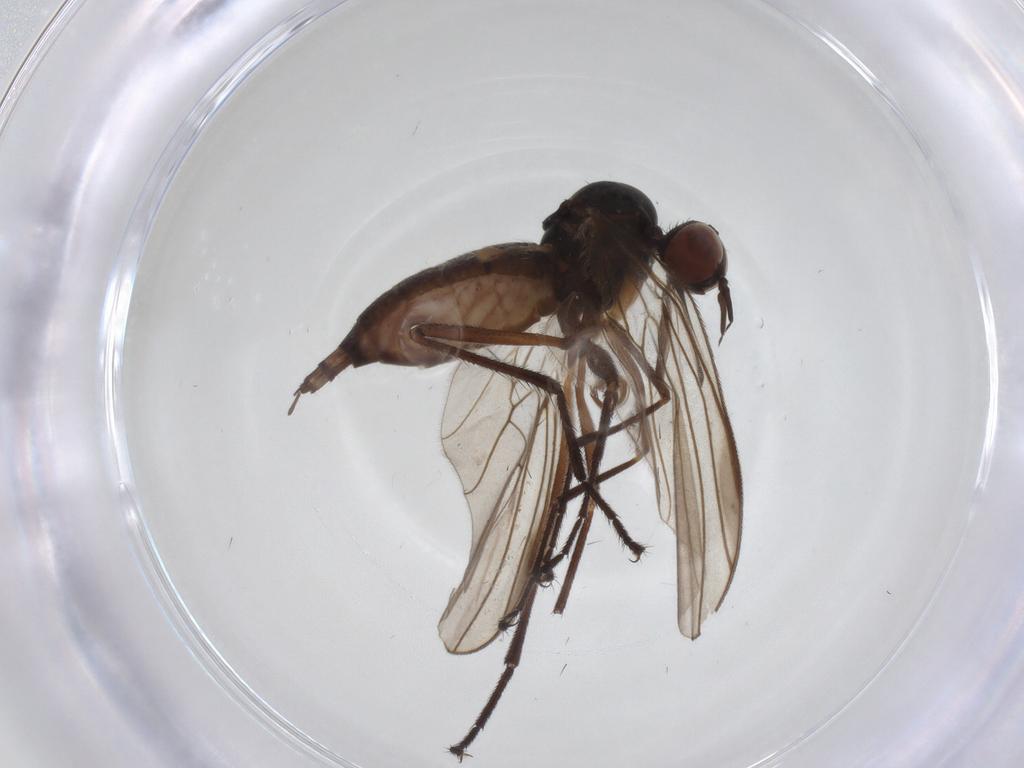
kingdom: Animalia
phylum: Arthropoda
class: Insecta
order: Diptera
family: Empididae
